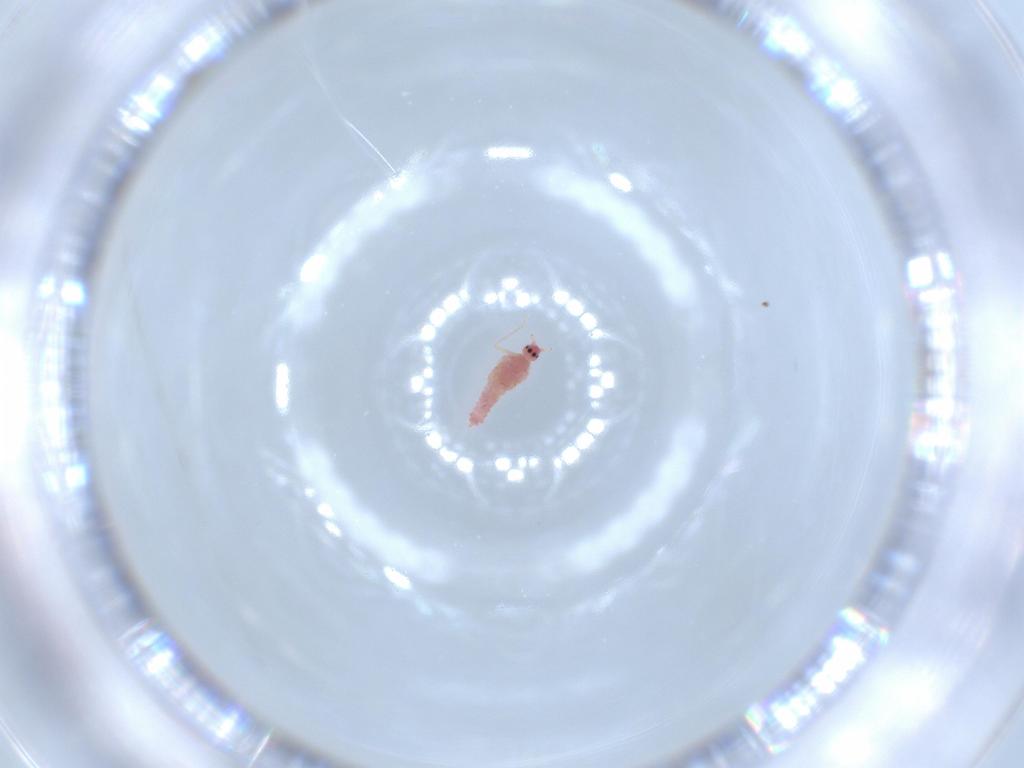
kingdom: Animalia
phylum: Arthropoda
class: Insecta
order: Hemiptera
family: Pseudococcidae
